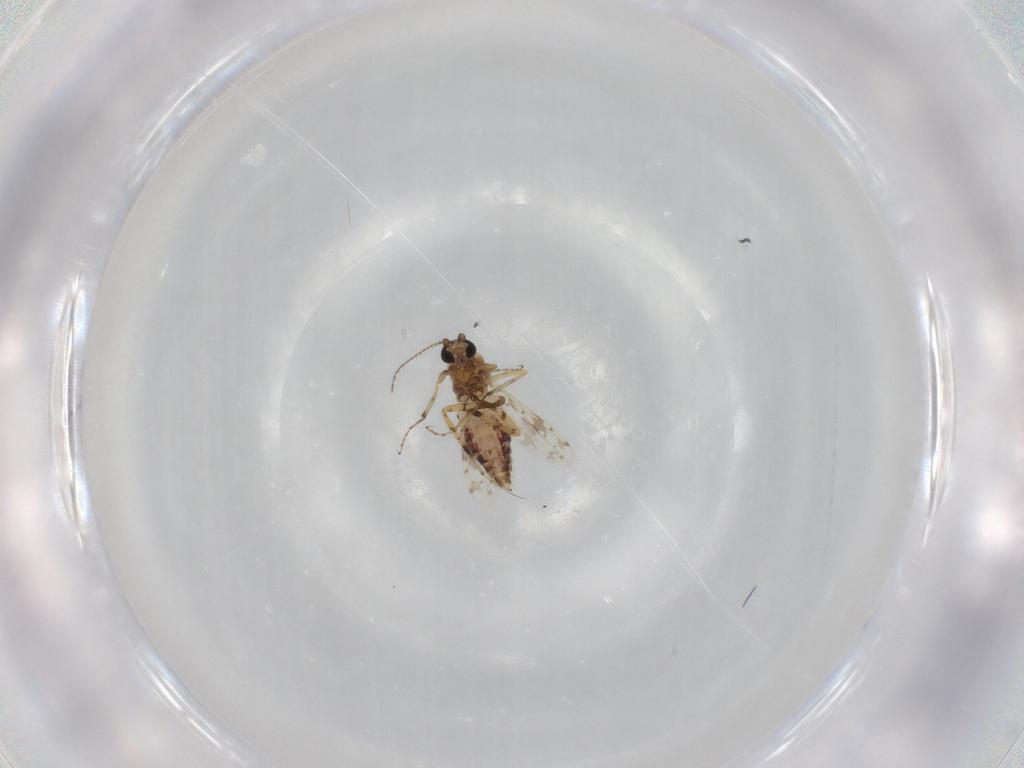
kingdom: Animalia
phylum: Arthropoda
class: Insecta
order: Diptera
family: Ceratopogonidae
